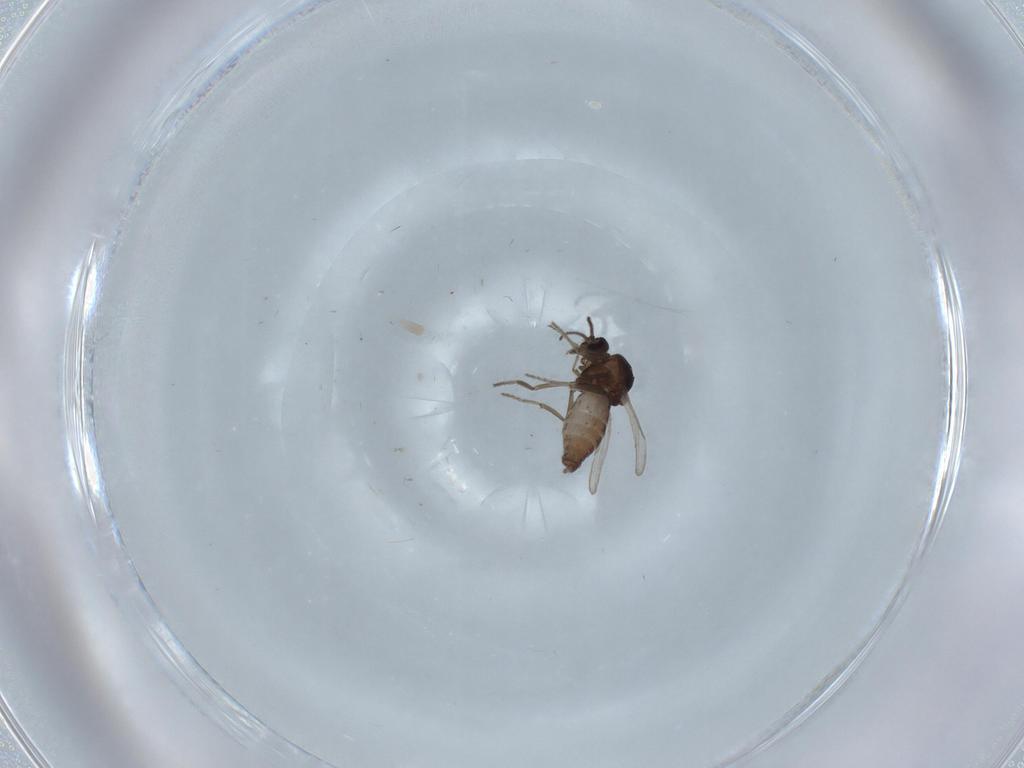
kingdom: Animalia
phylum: Arthropoda
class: Insecta
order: Diptera
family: Ceratopogonidae
